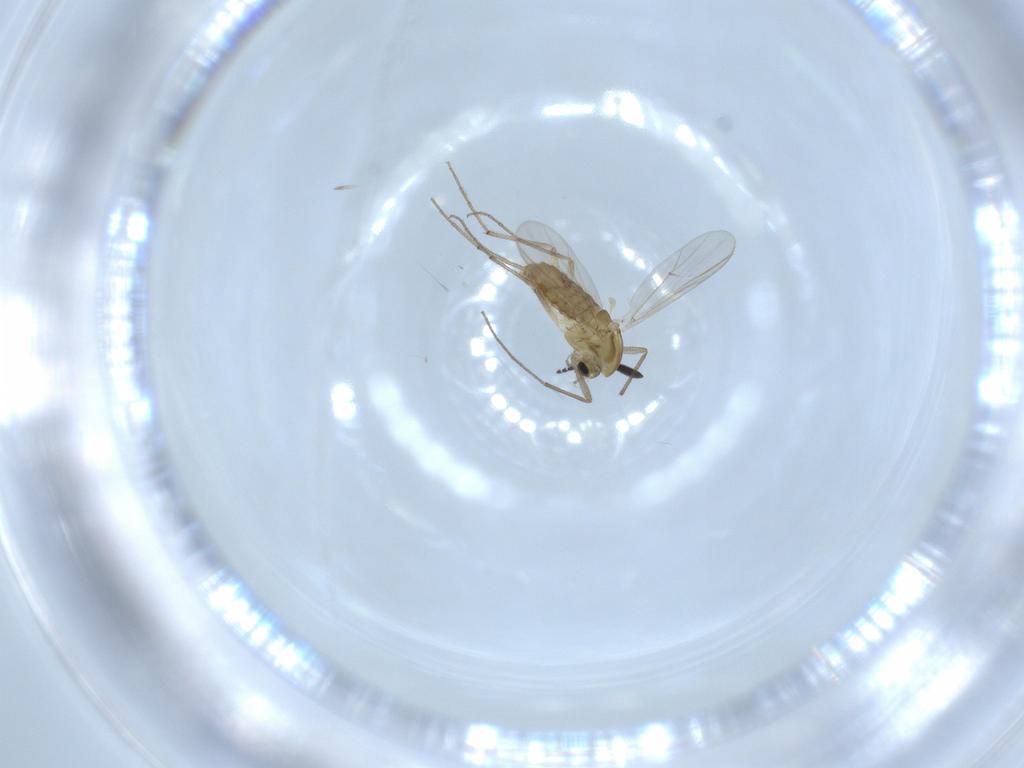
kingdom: Animalia
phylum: Arthropoda
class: Insecta
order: Diptera
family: Chironomidae
